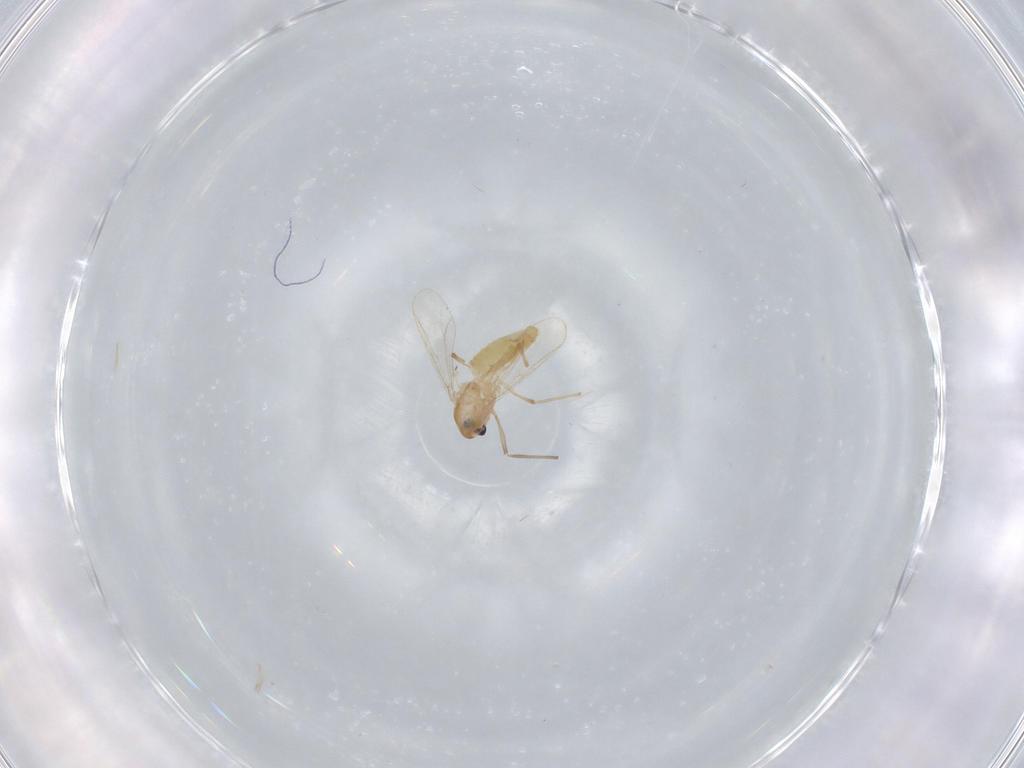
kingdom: Animalia
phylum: Arthropoda
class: Insecta
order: Diptera
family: Chironomidae
